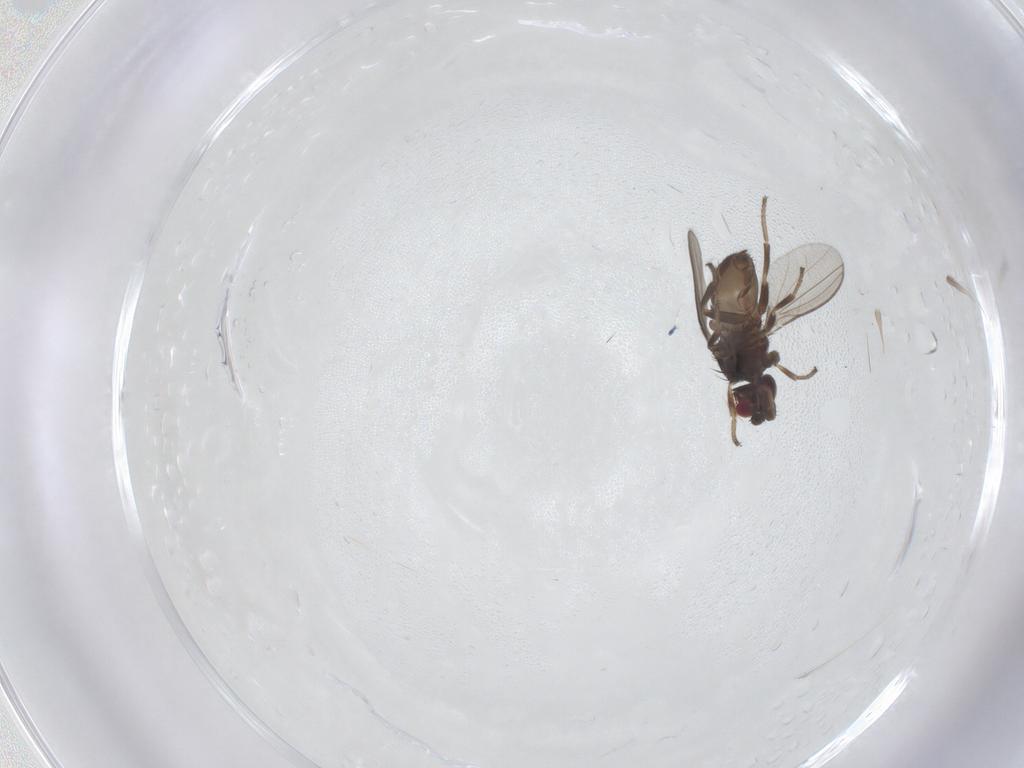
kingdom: Animalia
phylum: Arthropoda
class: Insecta
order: Diptera
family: Milichiidae
